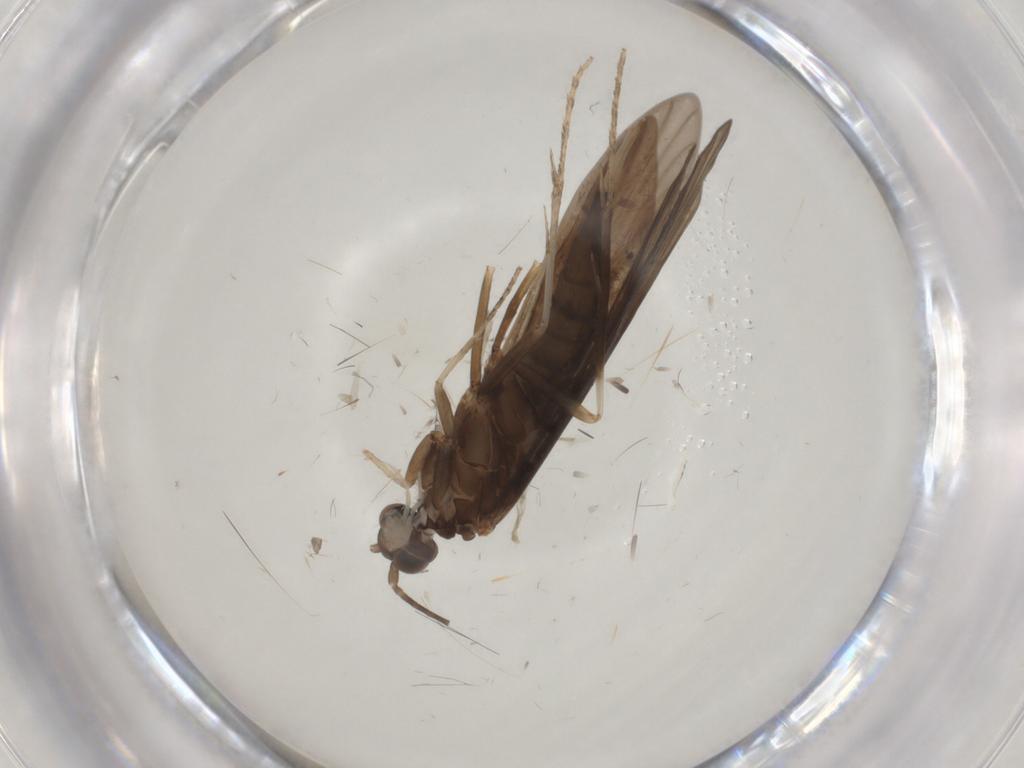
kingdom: Animalia
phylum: Arthropoda
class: Insecta
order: Trichoptera
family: Xiphocentronidae
